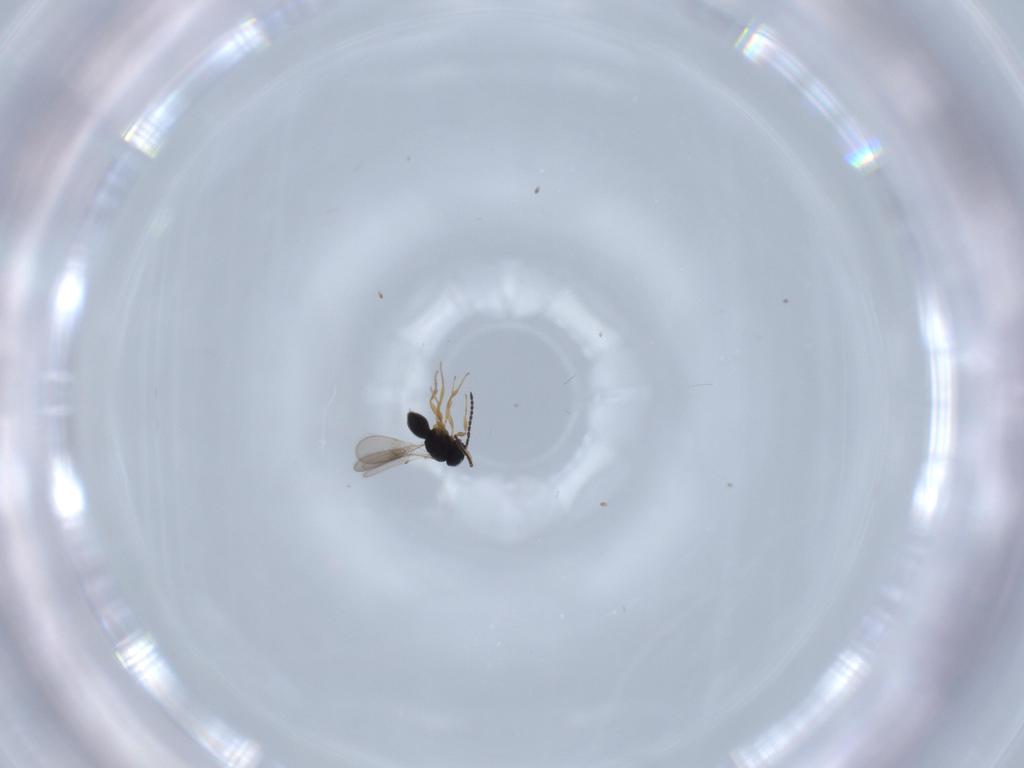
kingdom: Animalia
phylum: Arthropoda
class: Insecta
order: Hymenoptera
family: Scelionidae
